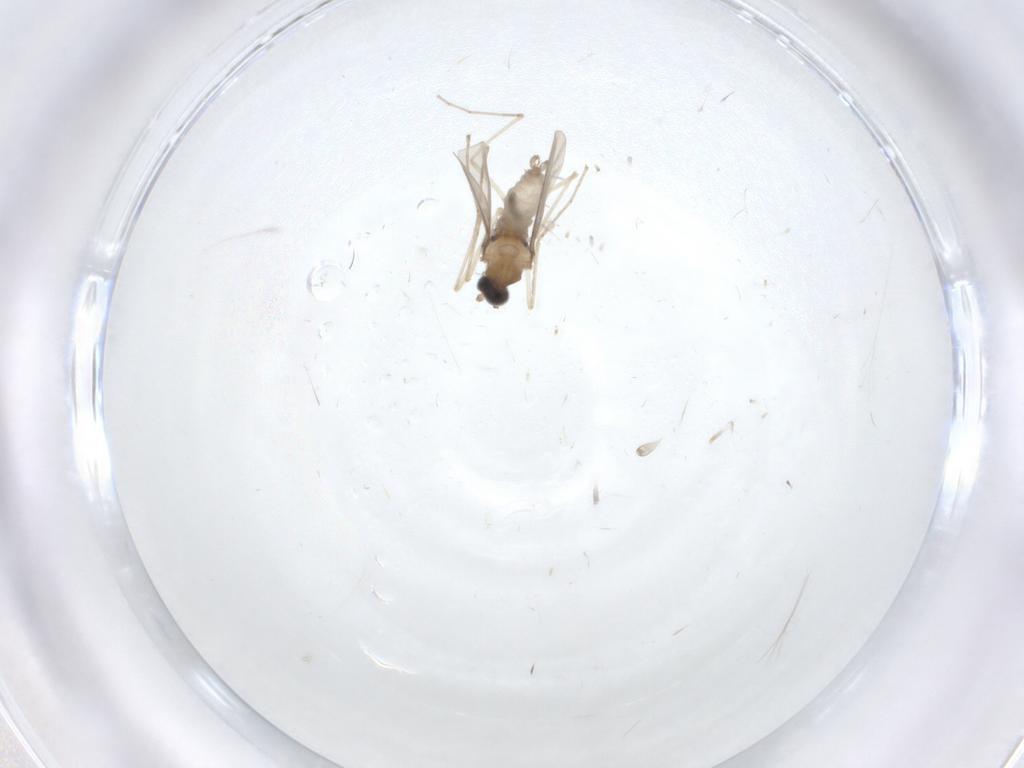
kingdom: Animalia
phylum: Arthropoda
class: Insecta
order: Diptera
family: Cecidomyiidae
